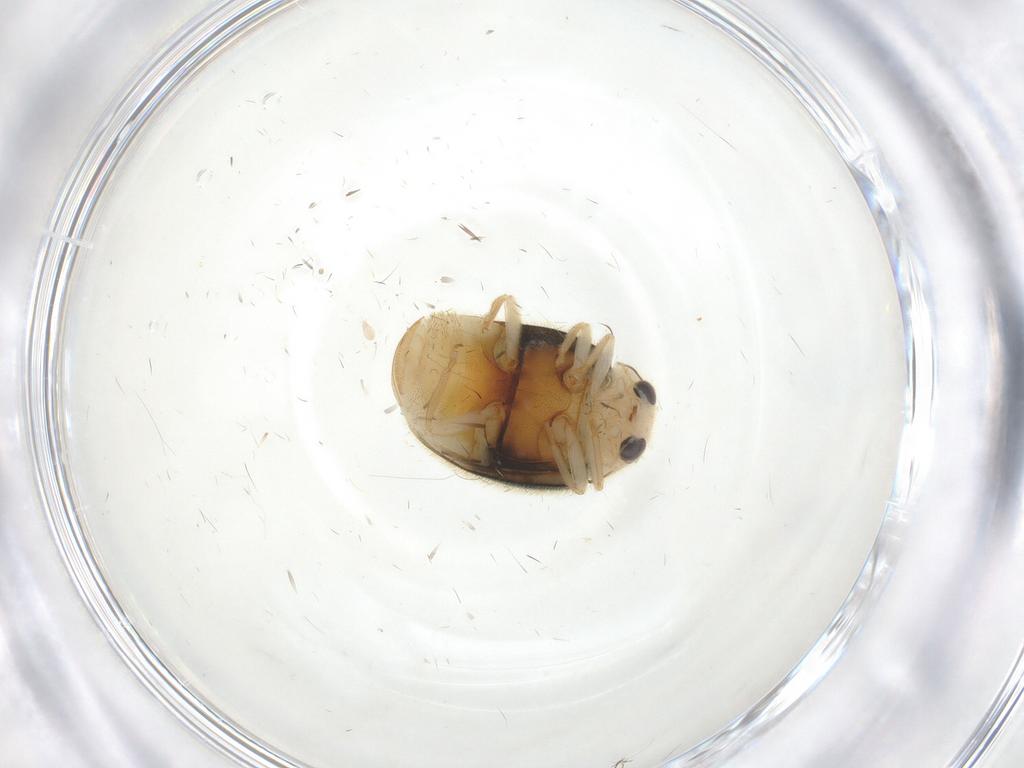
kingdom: Animalia
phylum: Arthropoda
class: Insecta
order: Coleoptera
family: Coccinellidae
